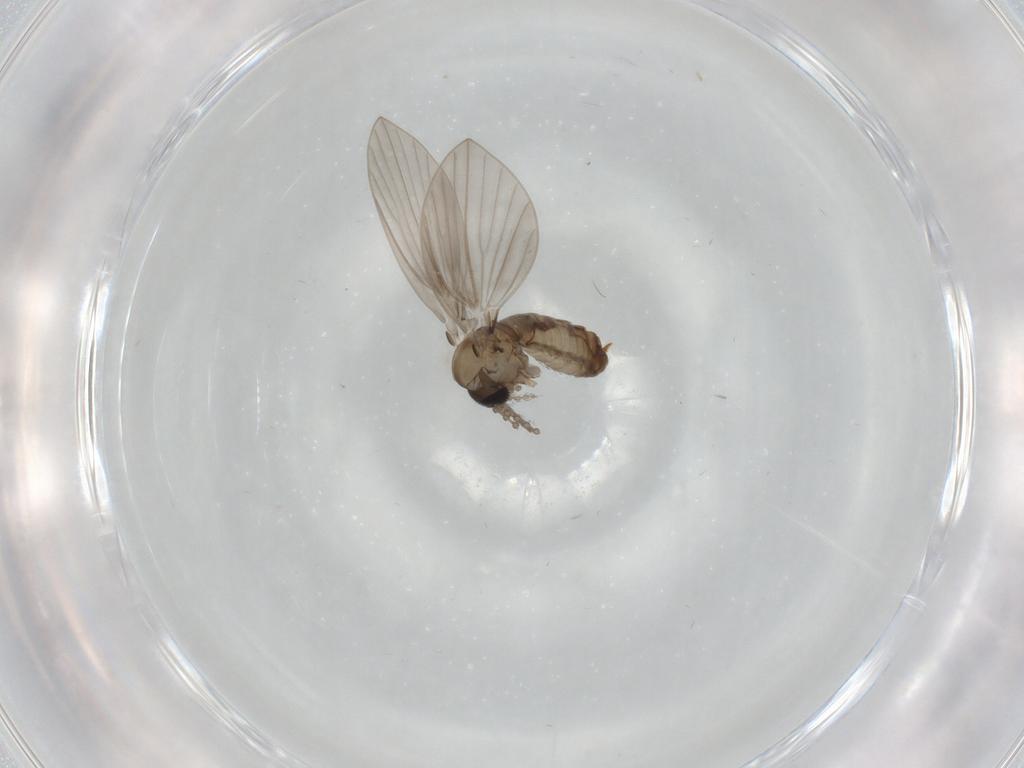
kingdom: Animalia
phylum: Arthropoda
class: Insecta
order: Diptera
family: Psychodidae
